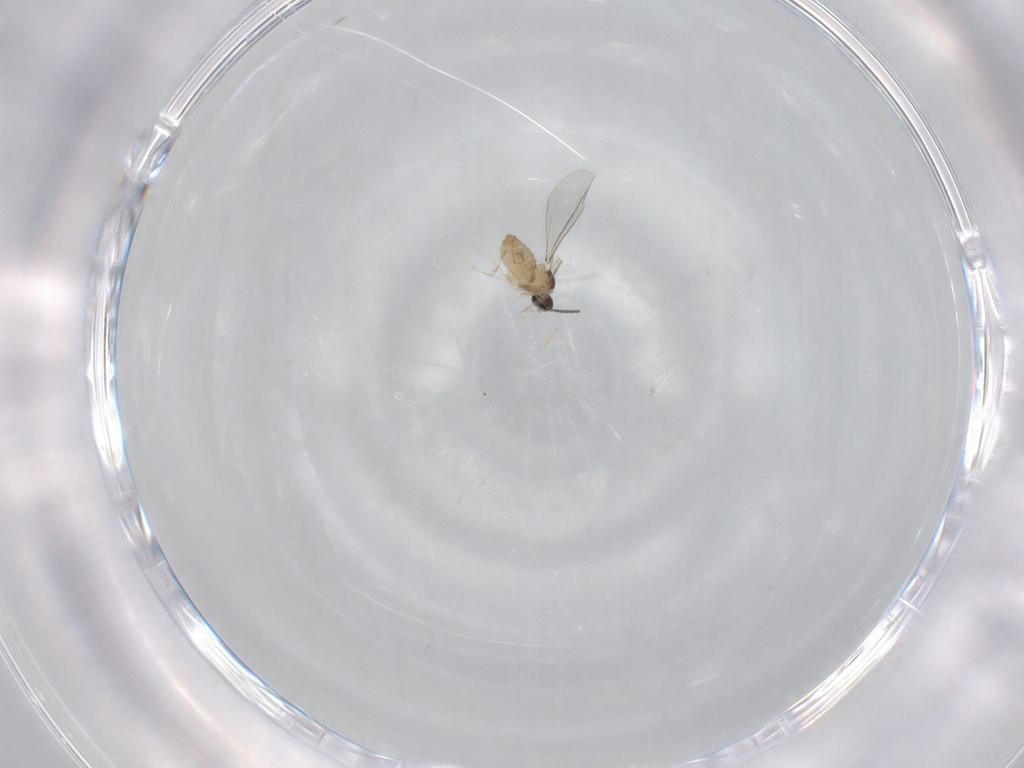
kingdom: Animalia
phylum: Arthropoda
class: Insecta
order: Diptera
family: Cecidomyiidae
